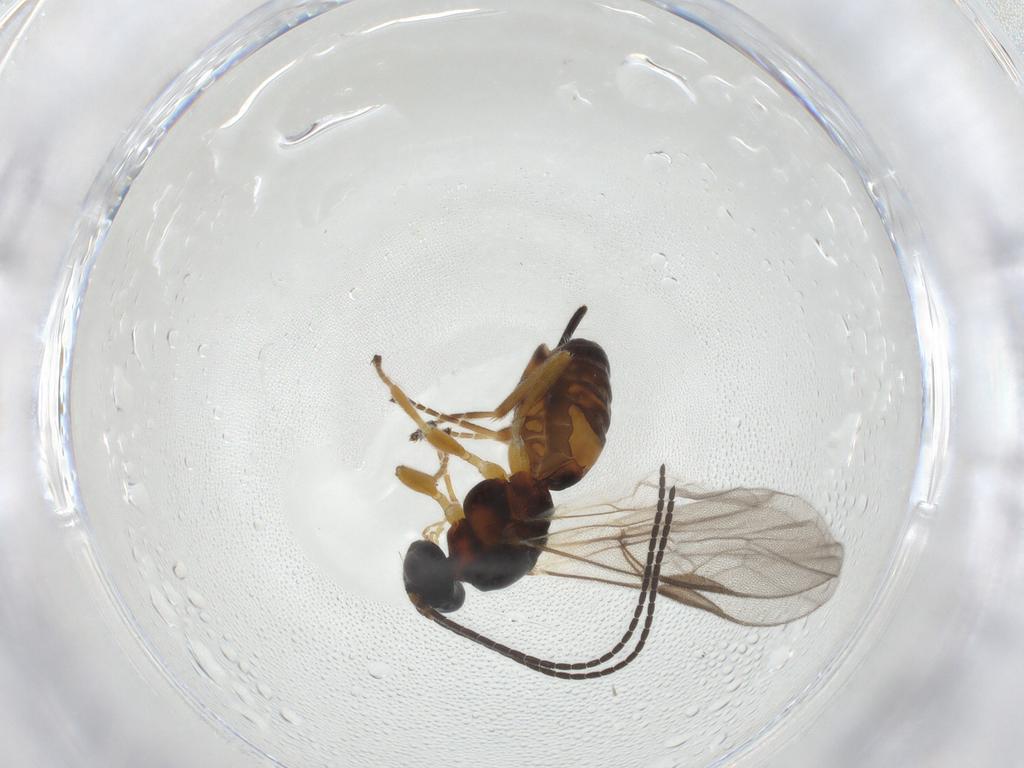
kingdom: Animalia
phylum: Arthropoda
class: Insecta
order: Hymenoptera
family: Braconidae
